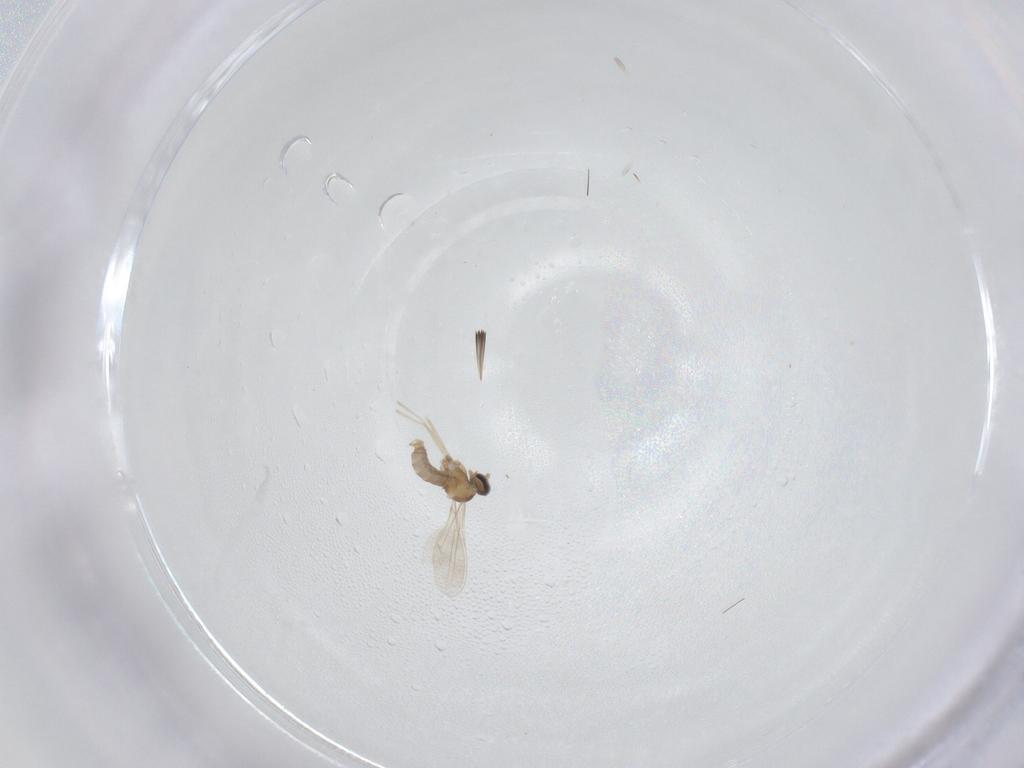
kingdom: Animalia
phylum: Arthropoda
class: Insecta
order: Diptera
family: Cecidomyiidae
